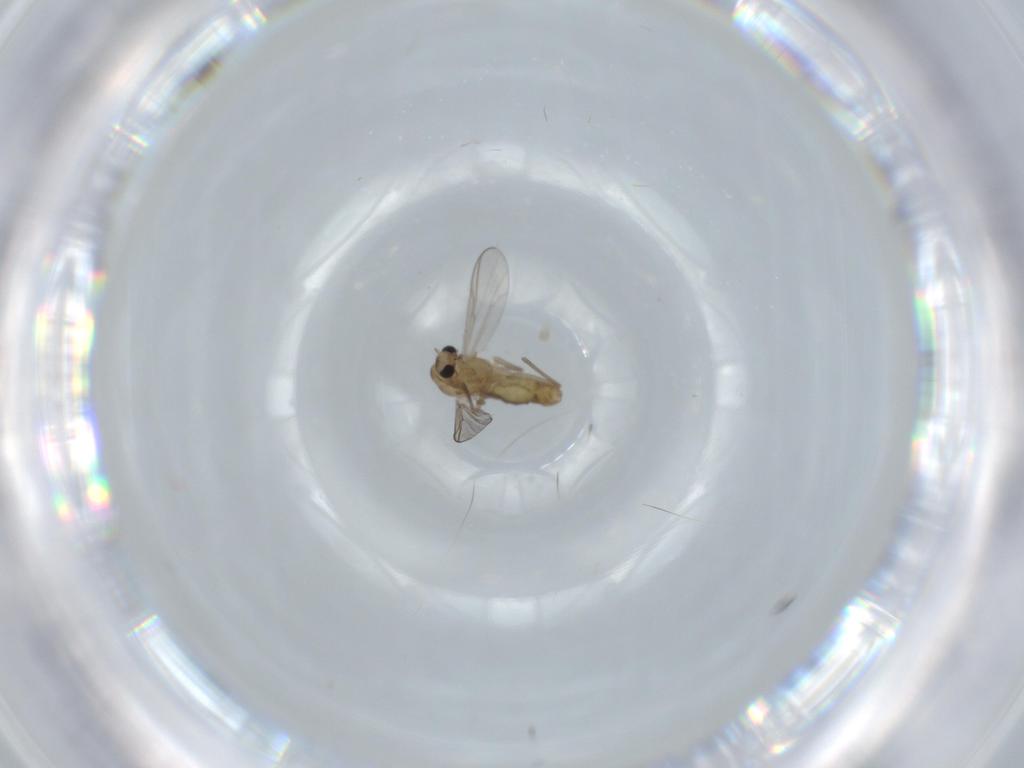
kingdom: Animalia
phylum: Arthropoda
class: Insecta
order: Diptera
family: Chironomidae
